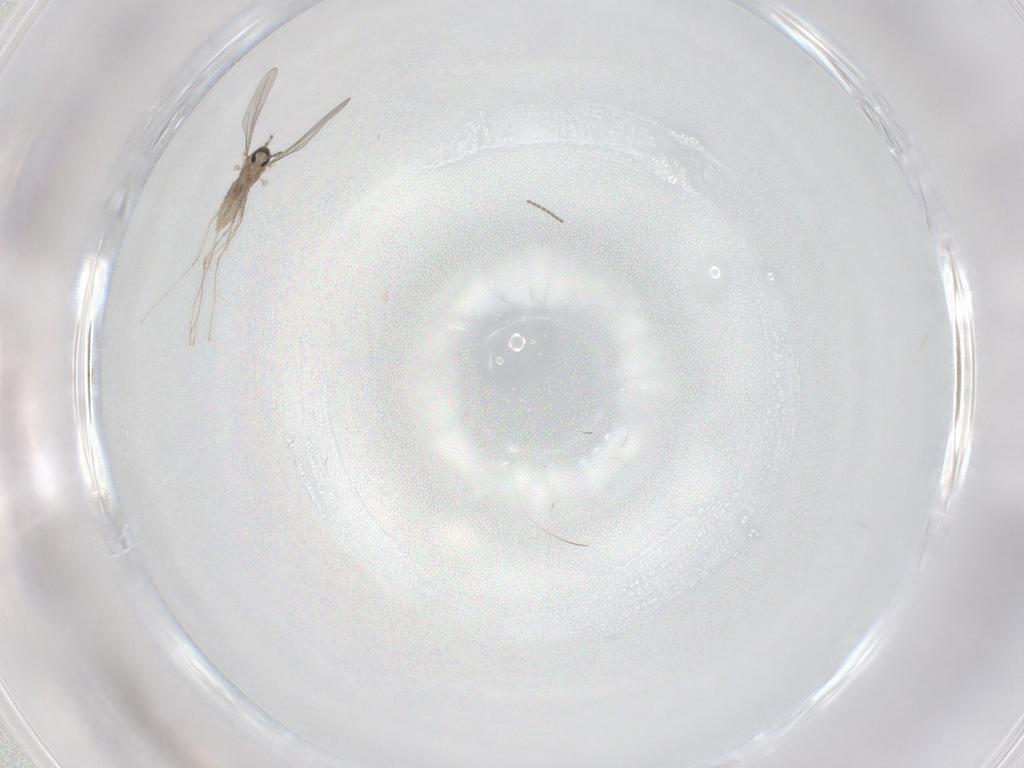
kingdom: Animalia
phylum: Arthropoda
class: Insecta
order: Diptera
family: Cecidomyiidae
